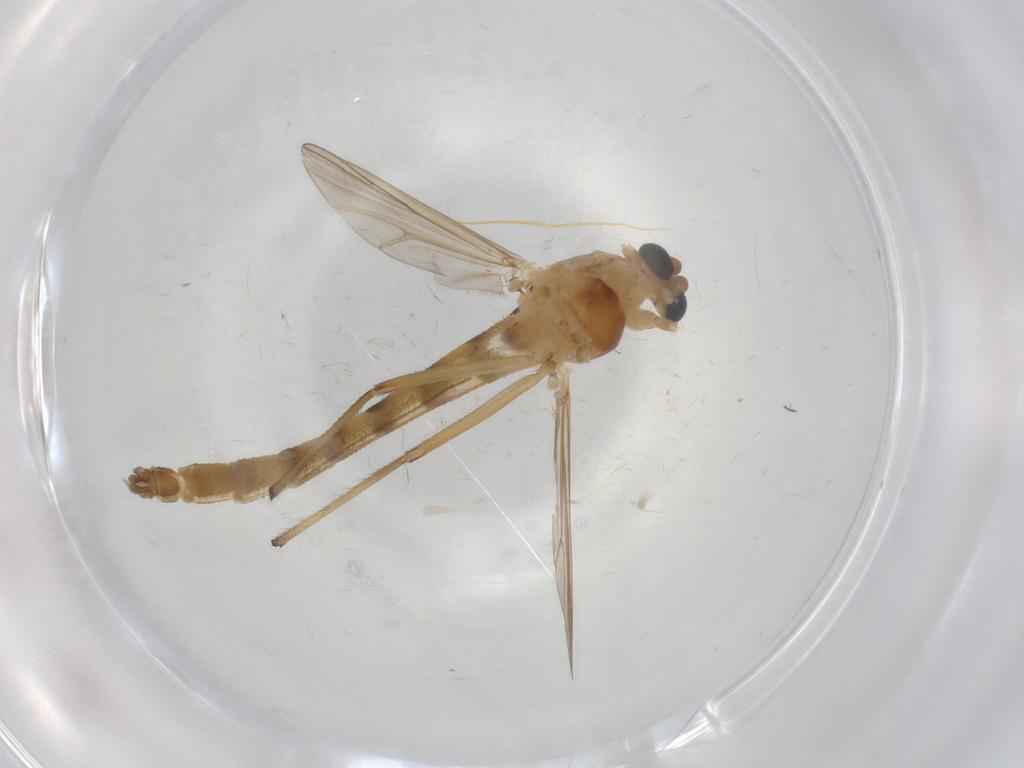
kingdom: Animalia
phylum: Arthropoda
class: Insecta
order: Diptera
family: Chironomidae
